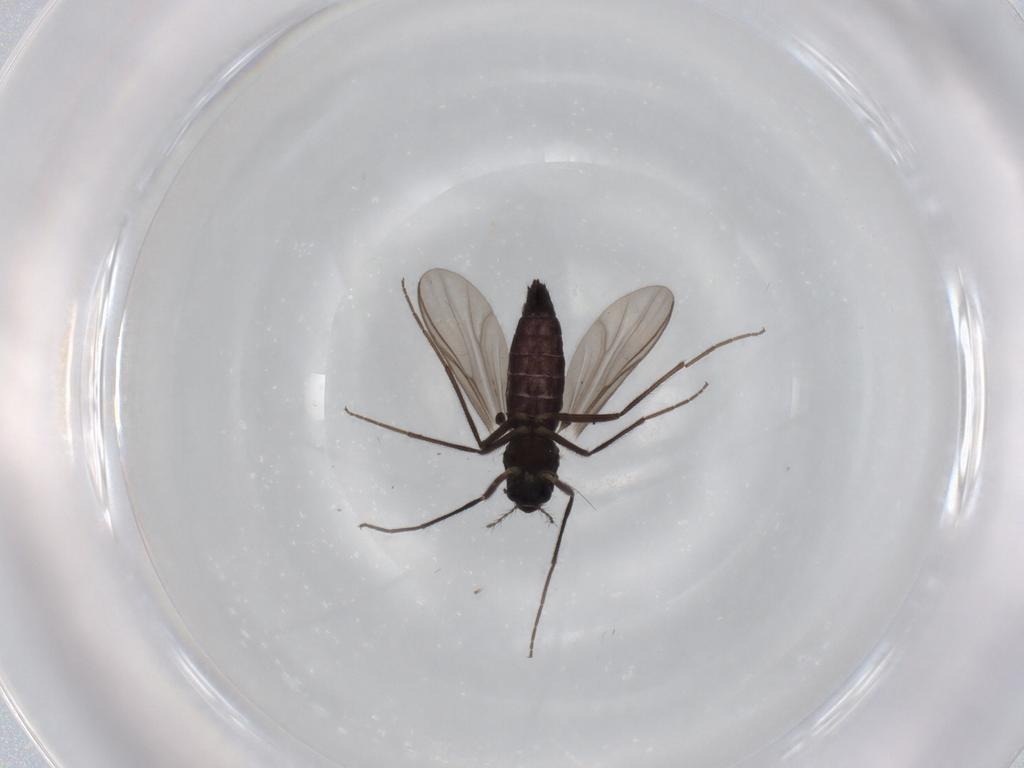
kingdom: Animalia
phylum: Arthropoda
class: Insecta
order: Diptera
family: Chironomidae
